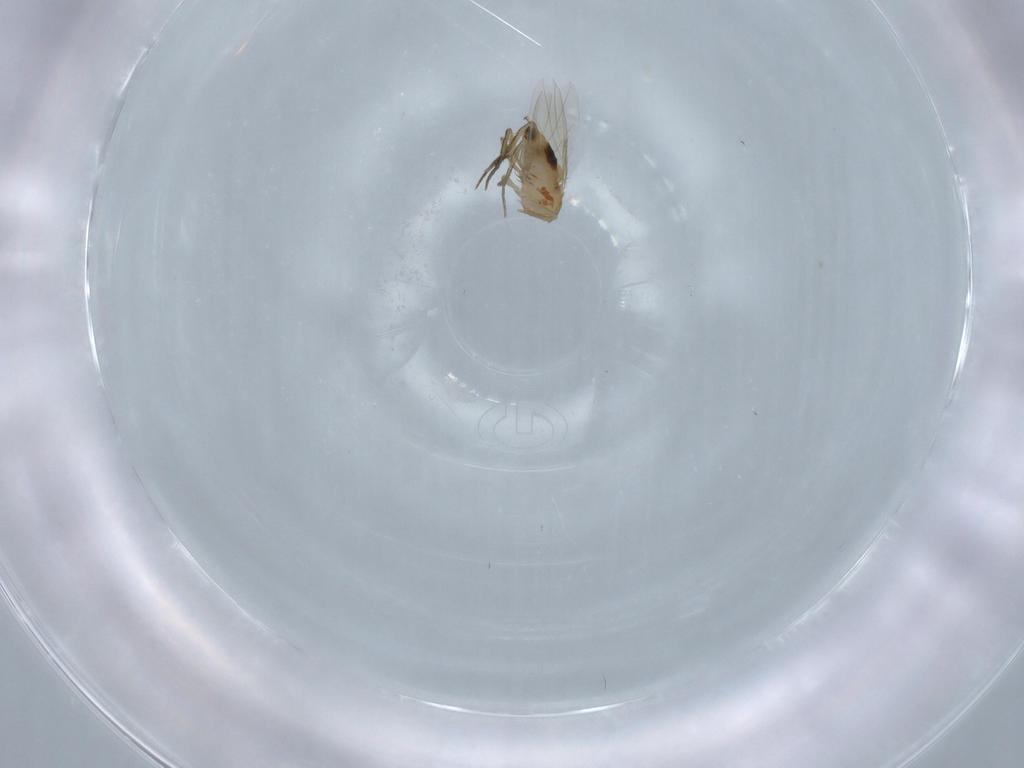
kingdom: Animalia
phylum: Arthropoda
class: Insecta
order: Diptera
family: Phoridae
